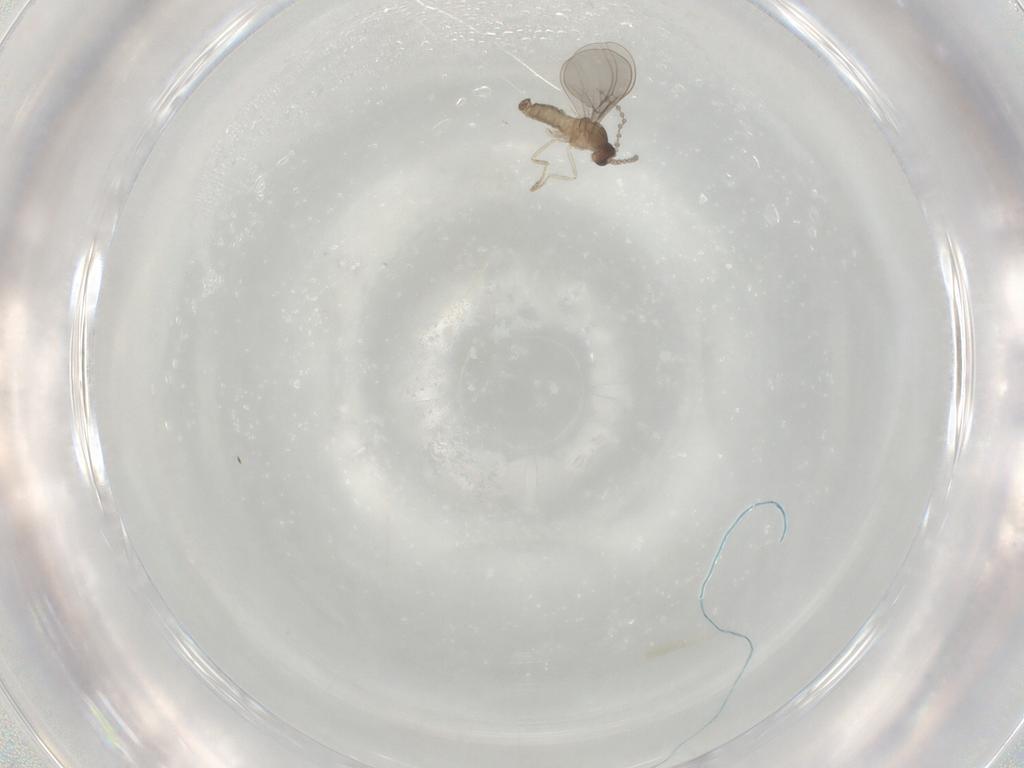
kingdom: Animalia
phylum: Arthropoda
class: Insecta
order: Diptera
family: Cecidomyiidae
